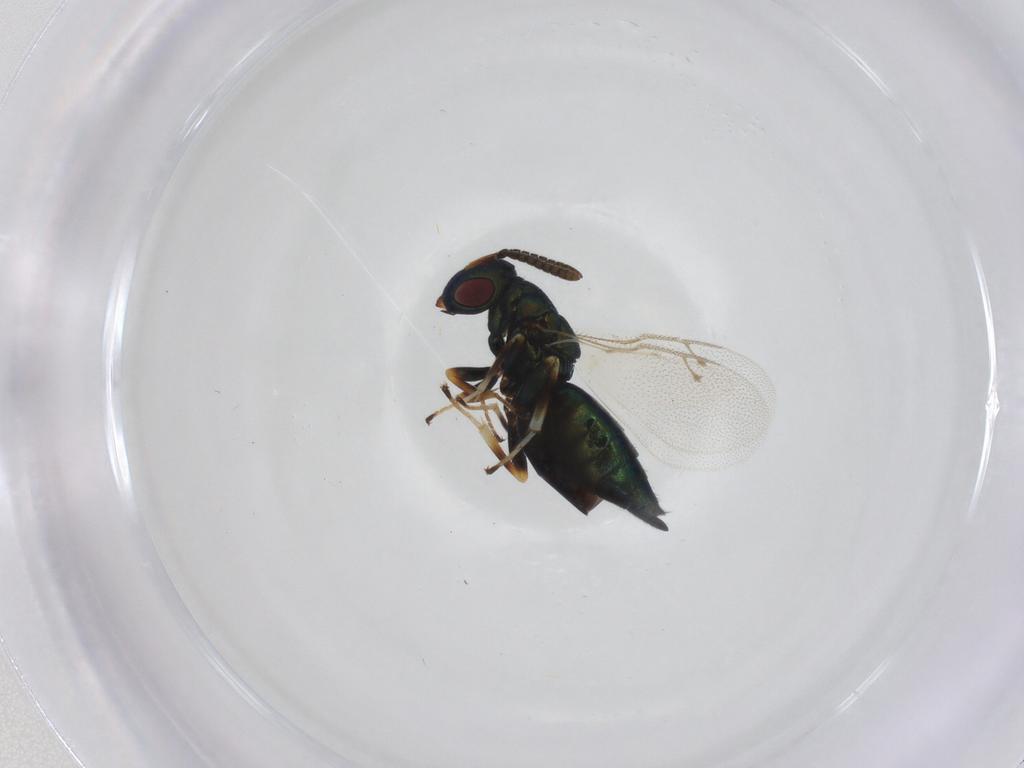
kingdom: Animalia
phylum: Arthropoda
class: Insecta
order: Hymenoptera
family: Pteromalidae
